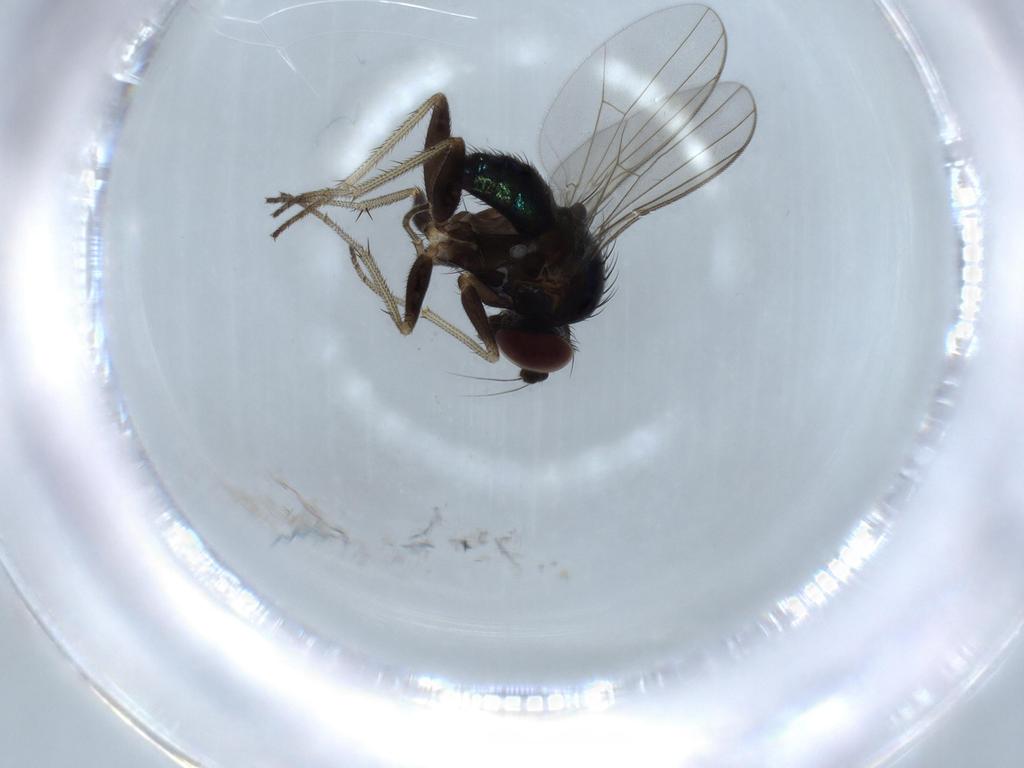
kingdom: Animalia
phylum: Arthropoda
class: Insecta
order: Diptera
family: Dolichopodidae
